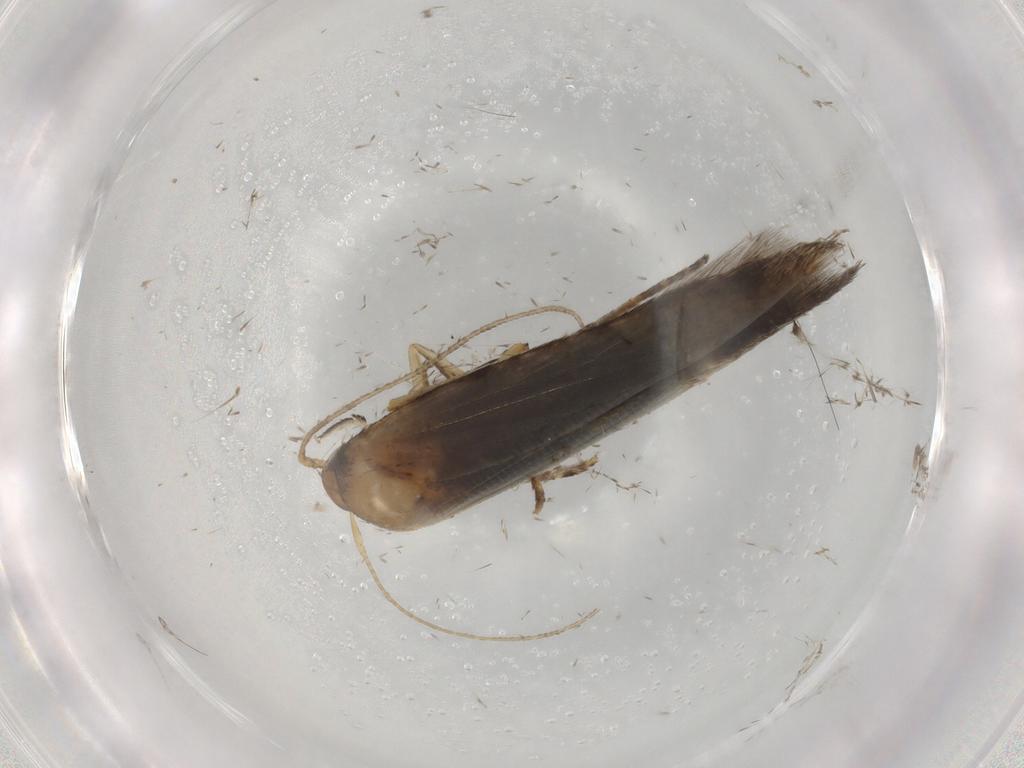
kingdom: Animalia
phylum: Arthropoda
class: Insecta
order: Lepidoptera
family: Cosmopterigidae
